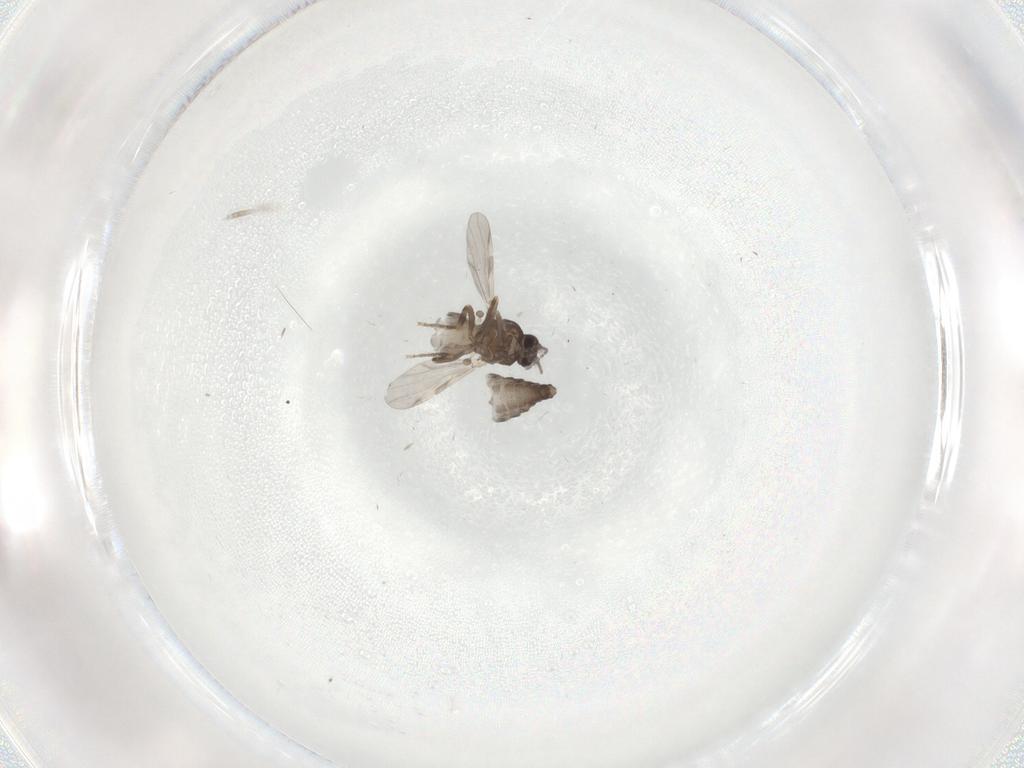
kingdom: Animalia
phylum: Arthropoda
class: Insecta
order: Diptera
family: Ceratopogonidae
